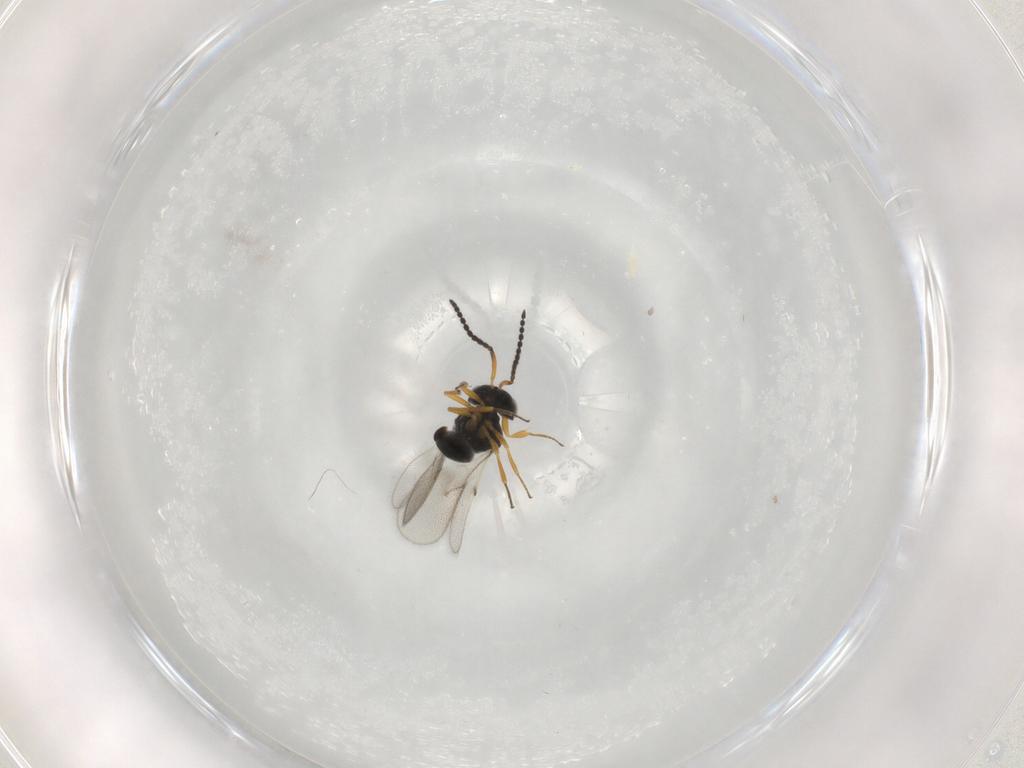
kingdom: Animalia
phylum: Arthropoda
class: Insecta
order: Hymenoptera
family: Scelionidae
